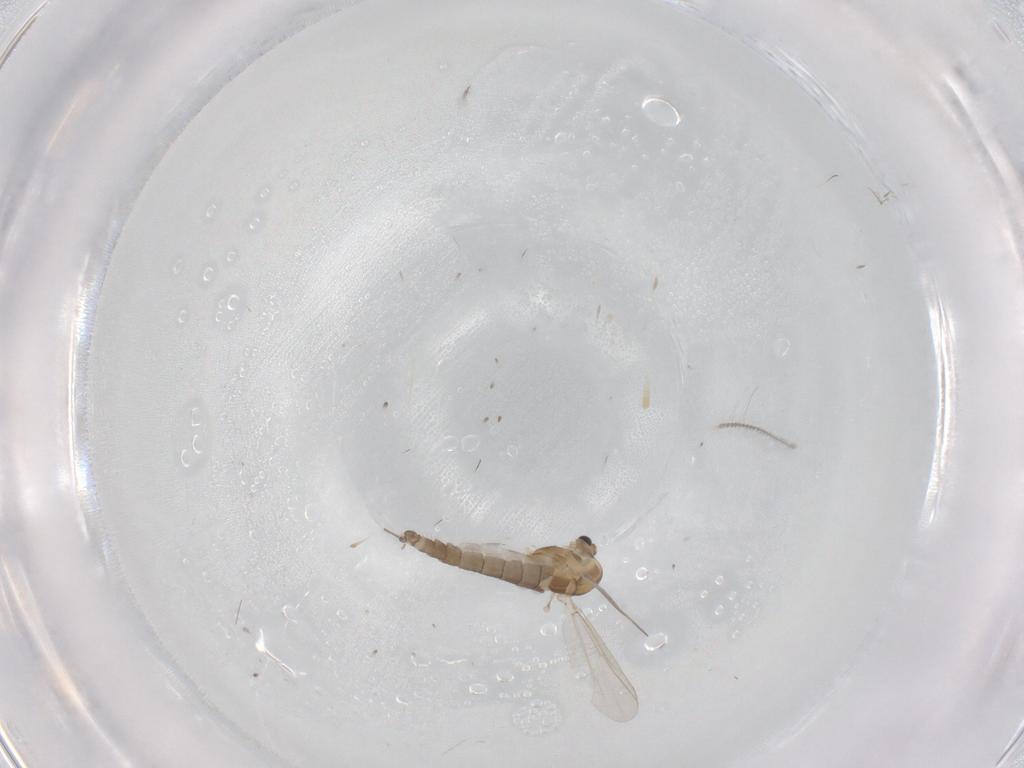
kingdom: Animalia
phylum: Arthropoda
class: Insecta
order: Diptera
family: Chironomidae
